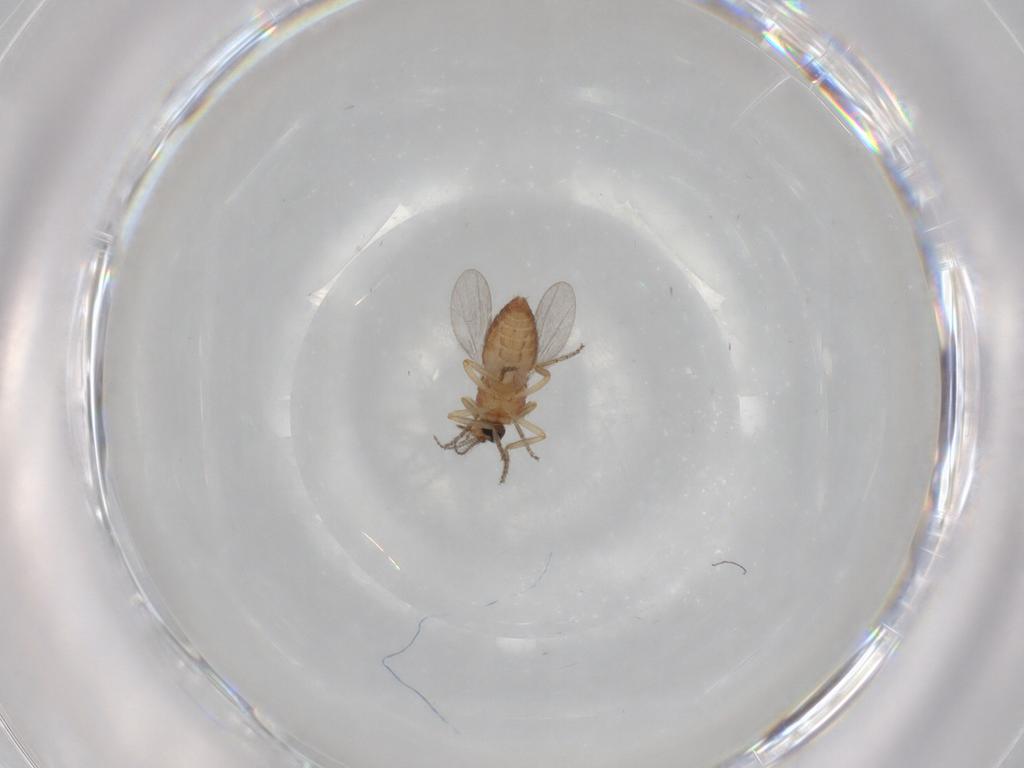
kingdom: Animalia
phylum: Arthropoda
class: Insecta
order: Diptera
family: Ceratopogonidae
